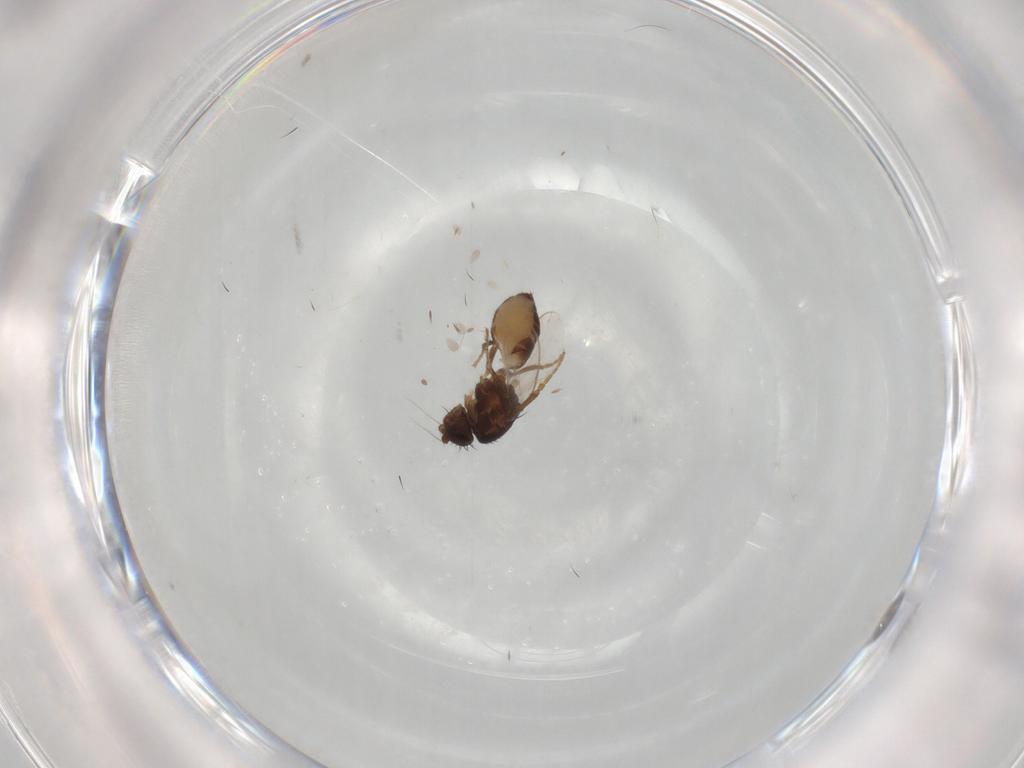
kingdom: Animalia
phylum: Arthropoda
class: Insecta
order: Diptera
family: Sphaeroceridae
